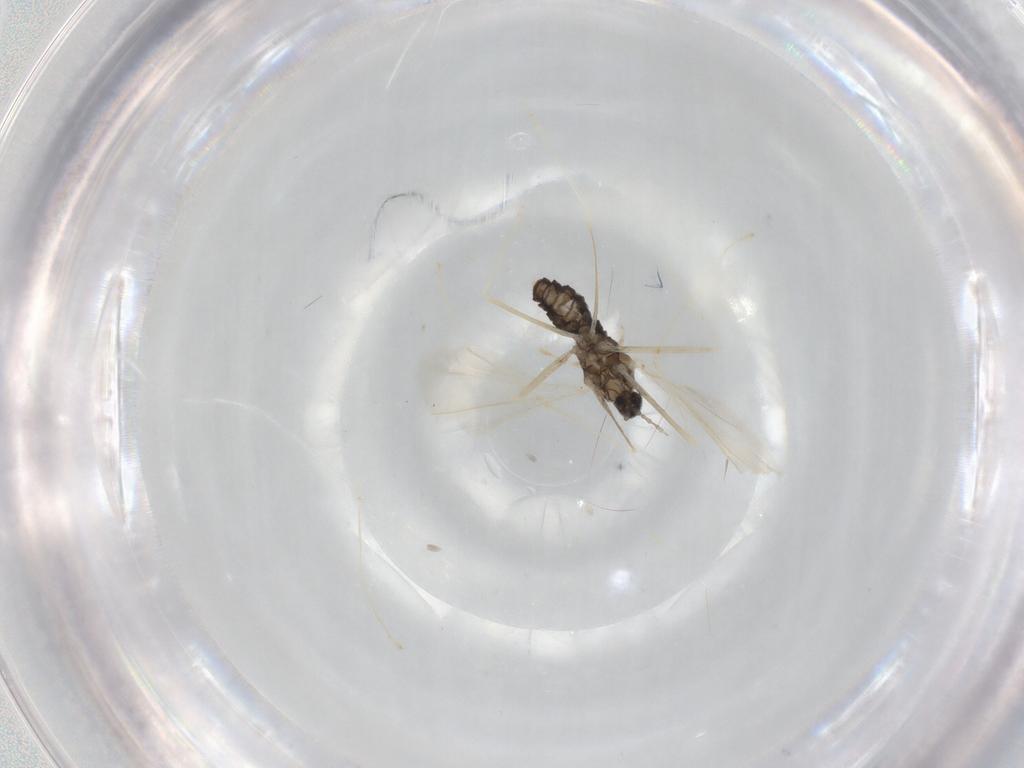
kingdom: Animalia
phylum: Arthropoda
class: Insecta
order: Diptera
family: Cecidomyiidae
